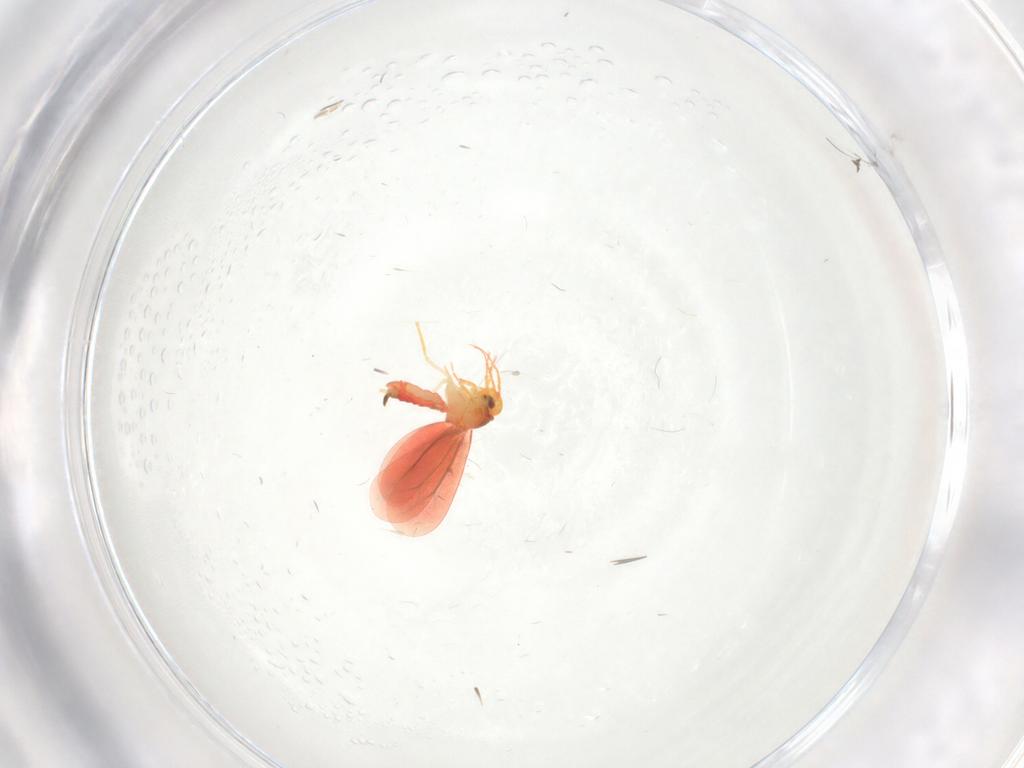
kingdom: Animalia
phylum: Arthropoda
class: Insecta
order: Hemiptera
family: Aleyrodidae
